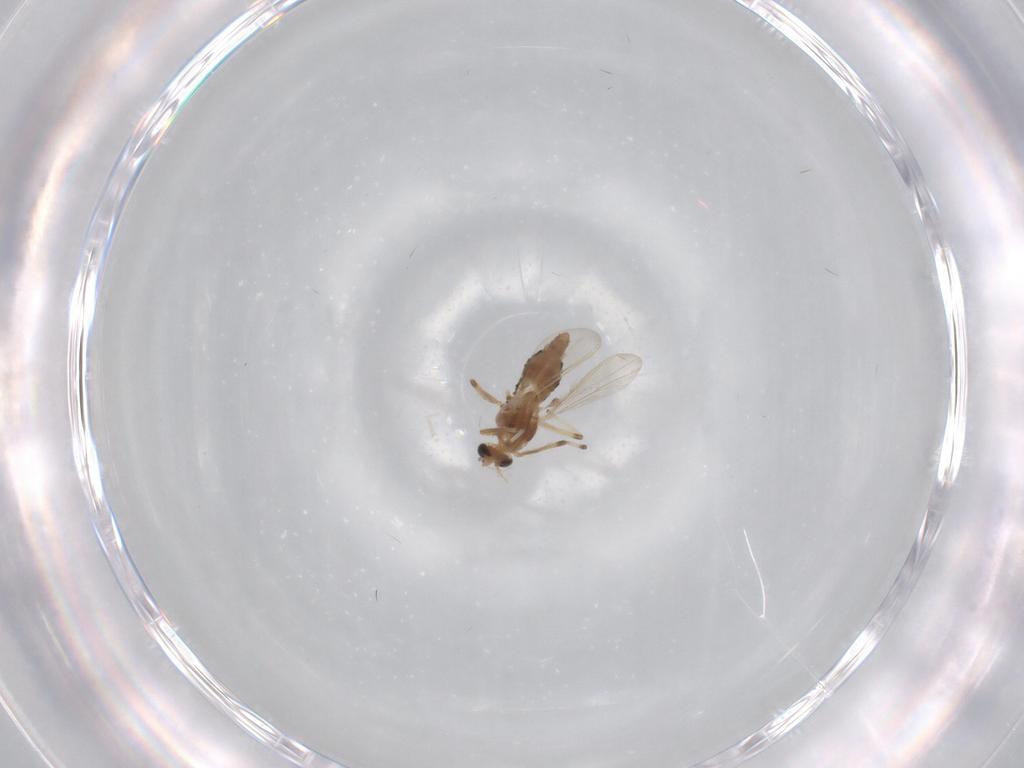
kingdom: Animalia
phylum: Arthropoda
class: Insecta
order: Diptera
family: Chironomidae
